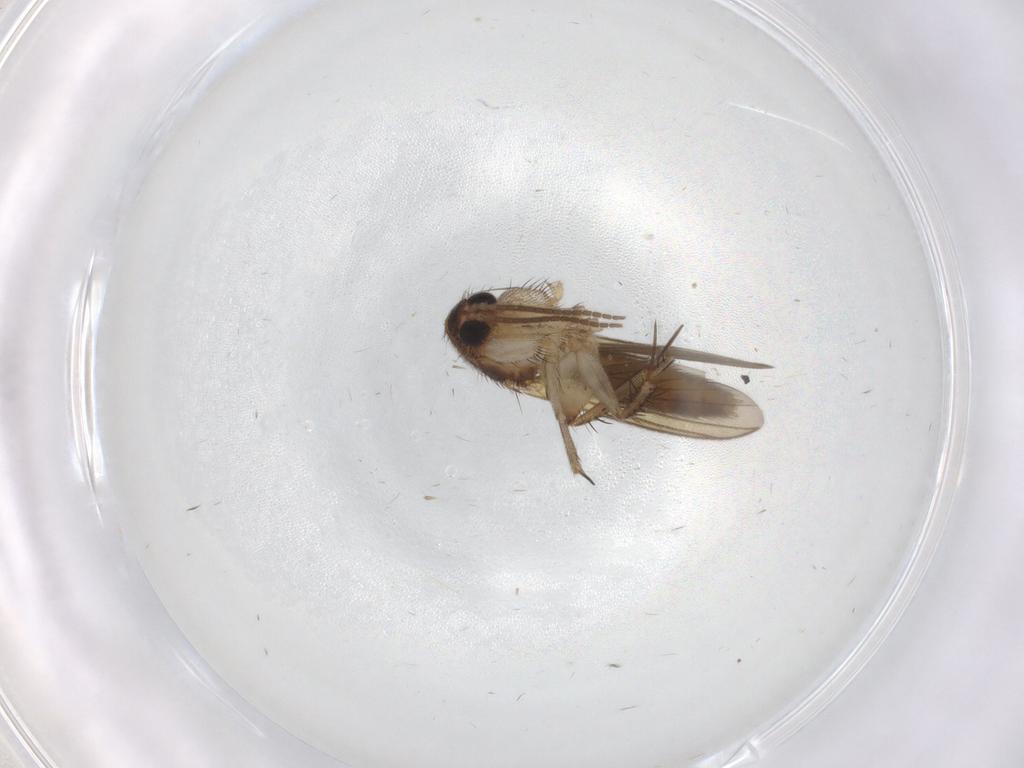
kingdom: Animalia
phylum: Arthropoda
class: Insecta
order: Diptera
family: Ceratopogonidae
